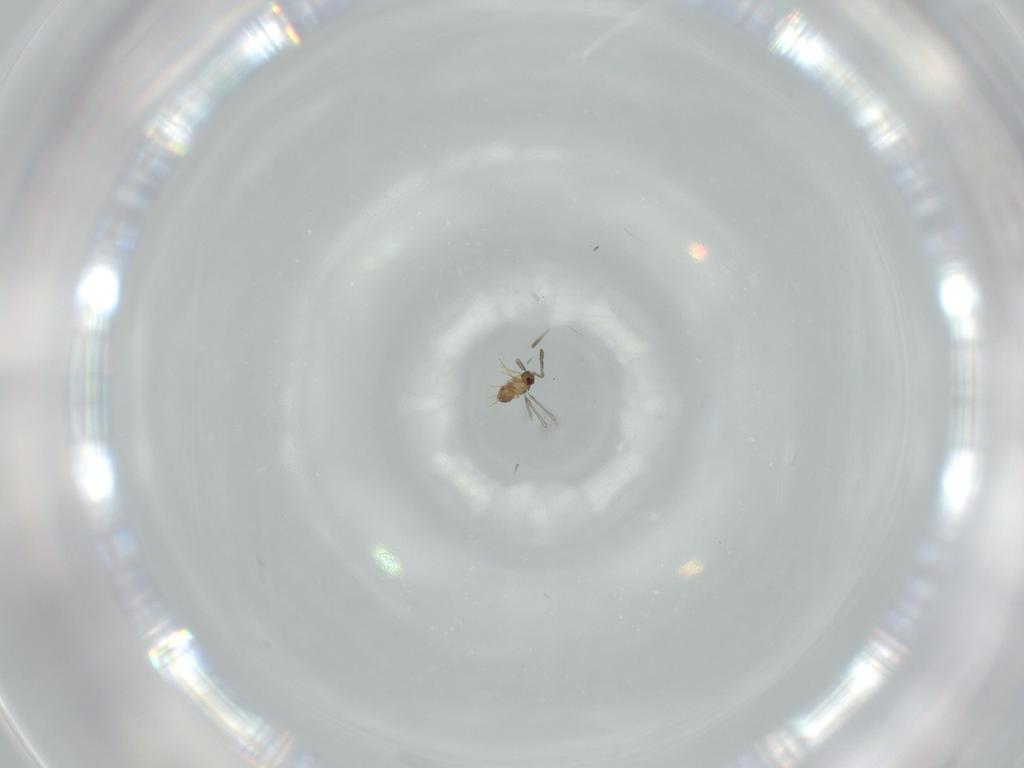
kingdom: Animalia
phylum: Arthropoda
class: Insecta
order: Hymenoptera
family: Mymaridae
